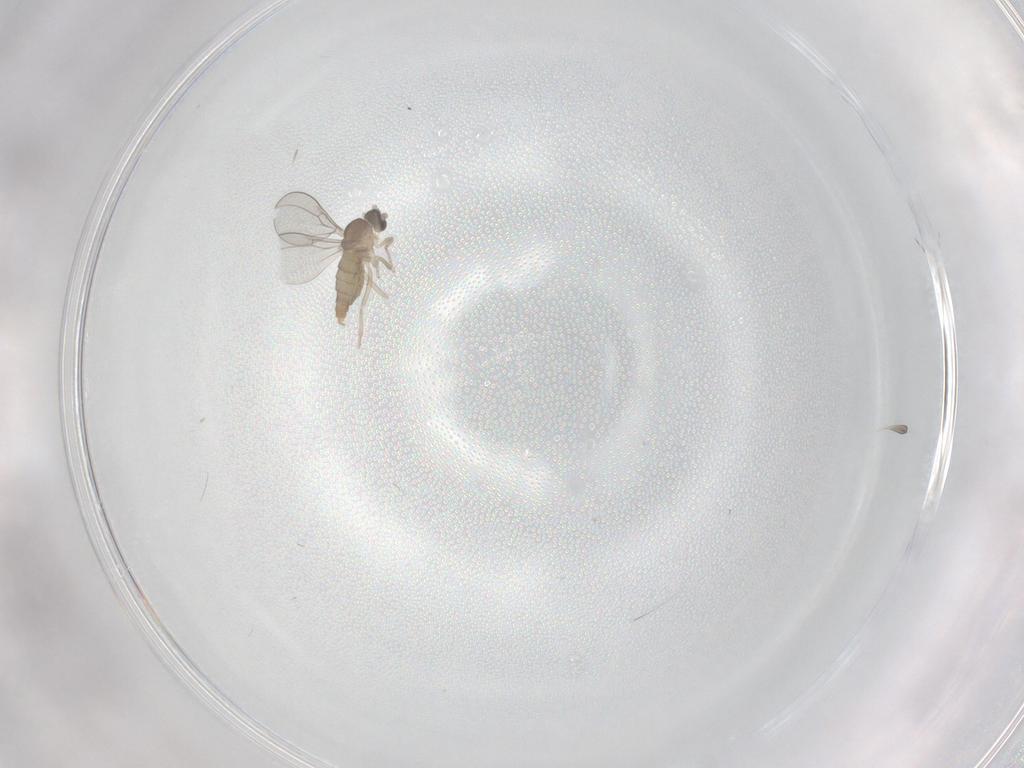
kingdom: Animalia
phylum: Arthropoda
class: Insecta
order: Diptera
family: Cecidomyiidae
